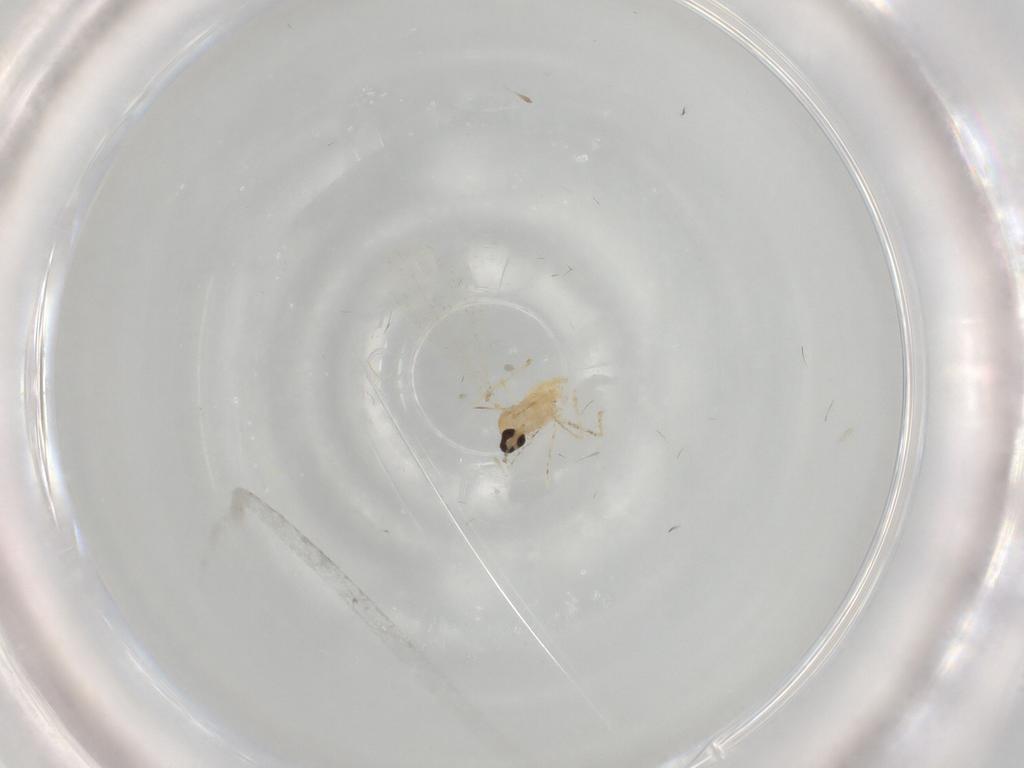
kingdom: Animalia
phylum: Arthropoda
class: Insecta
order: Diptera
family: Cecidomyiidae
